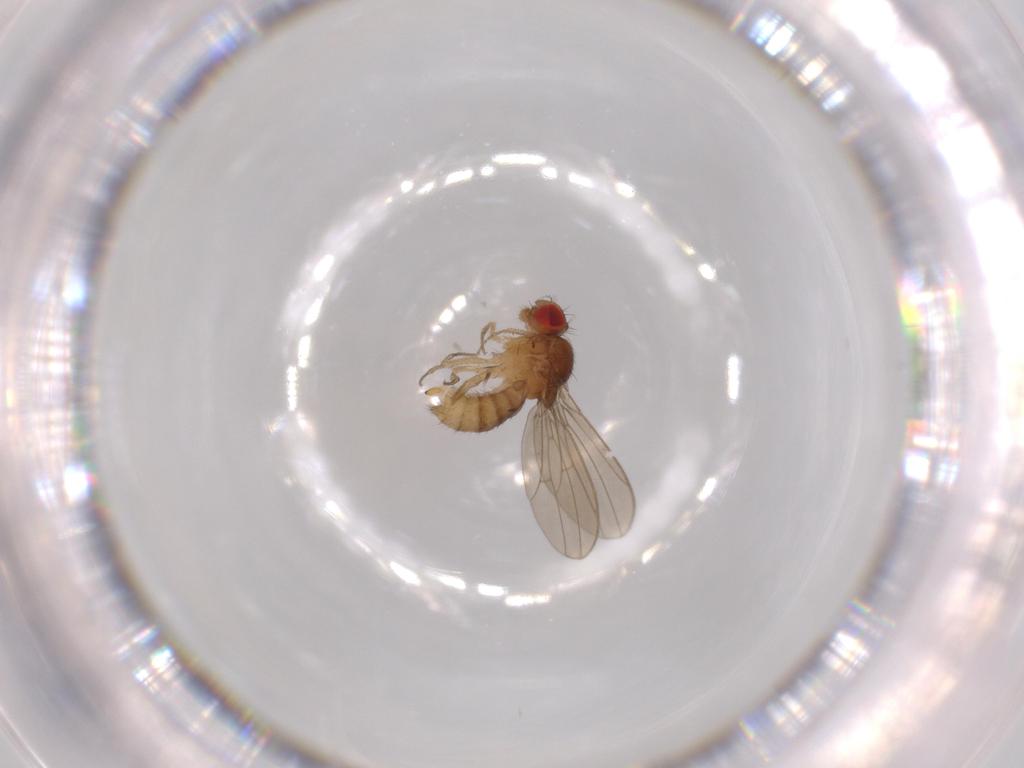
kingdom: Animalia
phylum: Arthropoda
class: Insecta
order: Diptera
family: Drosophilidae
